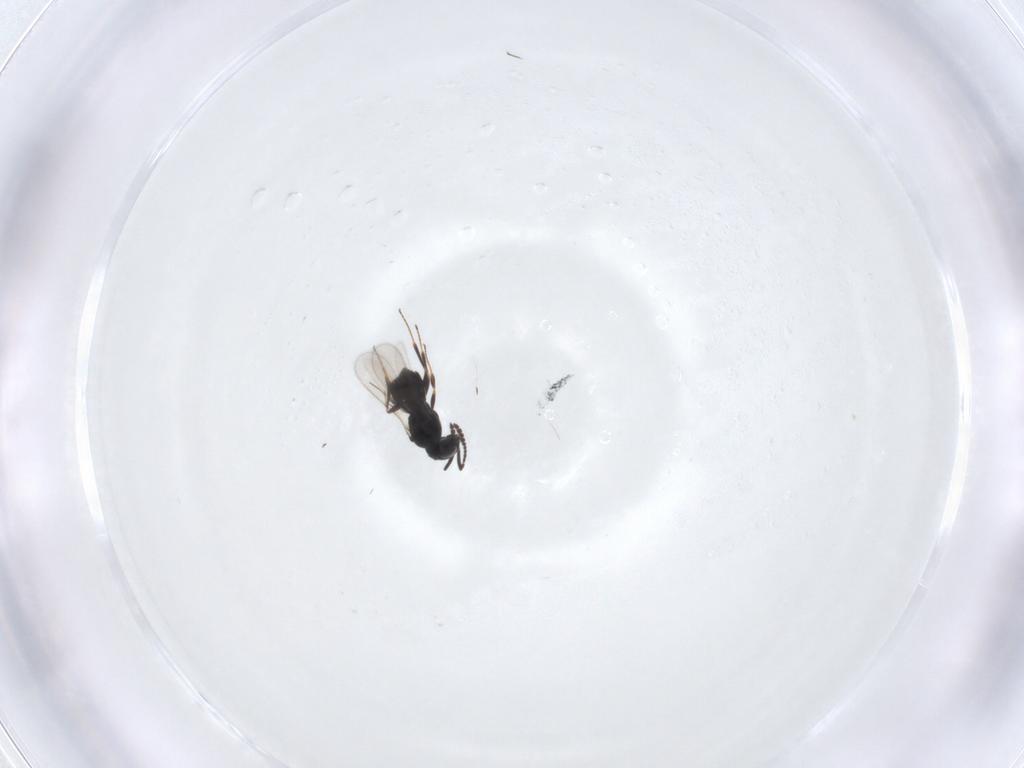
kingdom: Animalia
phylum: Arthropoda
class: Insecta
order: Hymenoptera
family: Scelionidae
